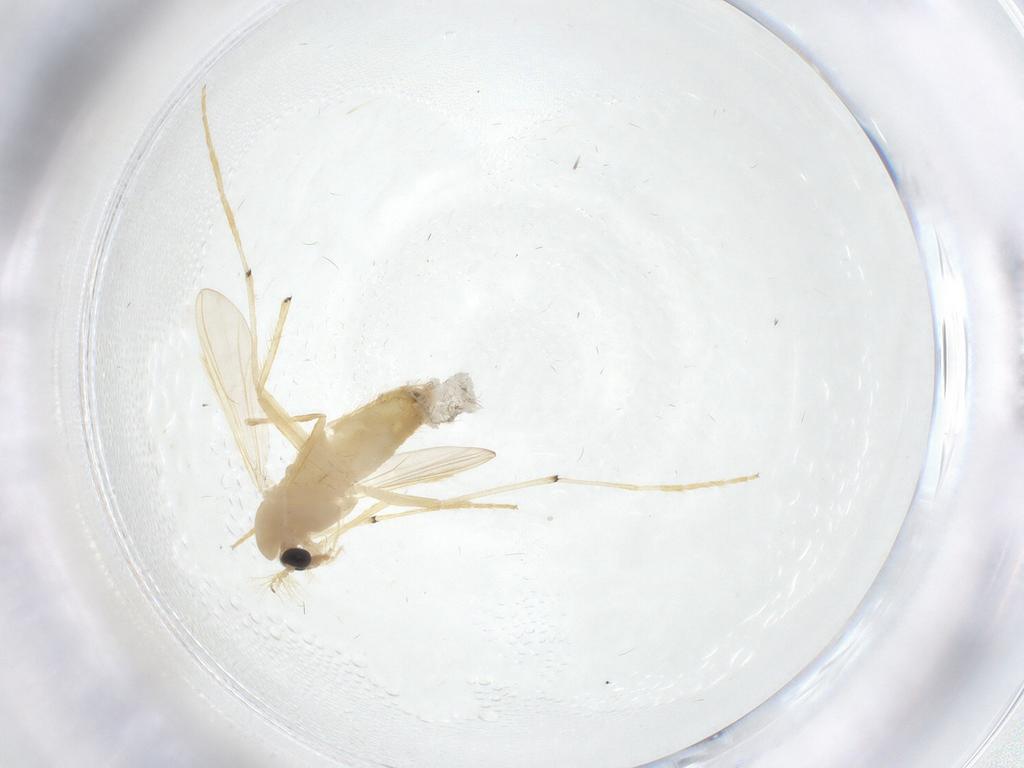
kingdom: Animalia
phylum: Arthropoda
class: Insecta
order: Diptera
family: Chironomidae
